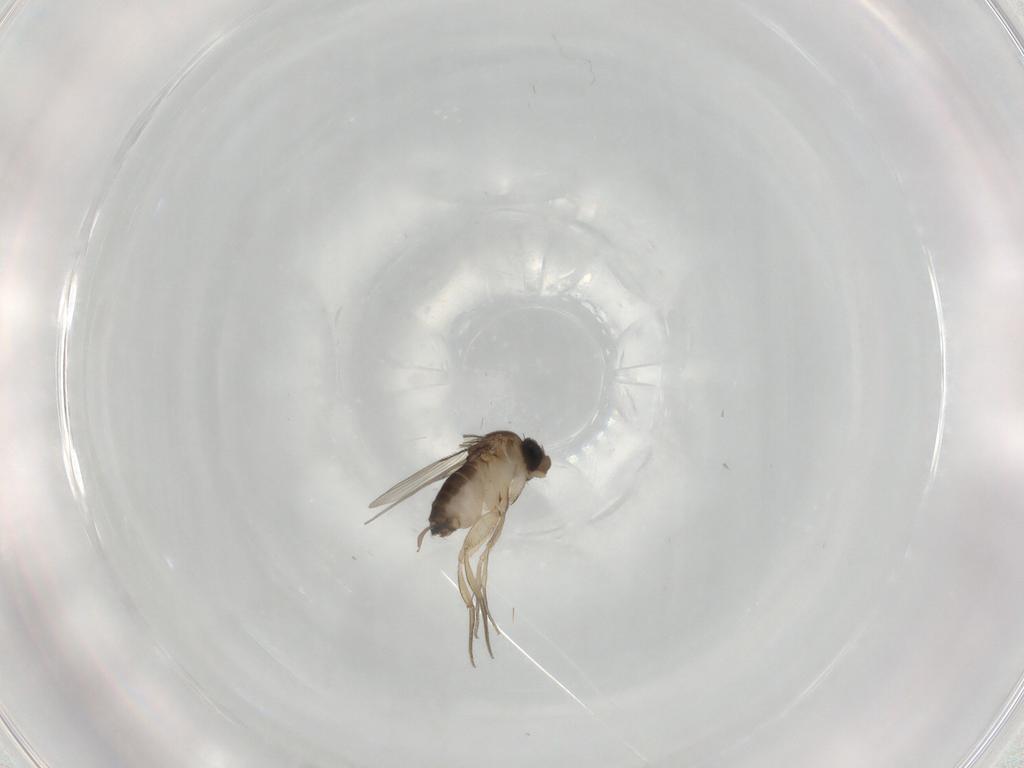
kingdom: Animalia
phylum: Arthropoda
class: Insecta
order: Diptera
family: Phoridae
